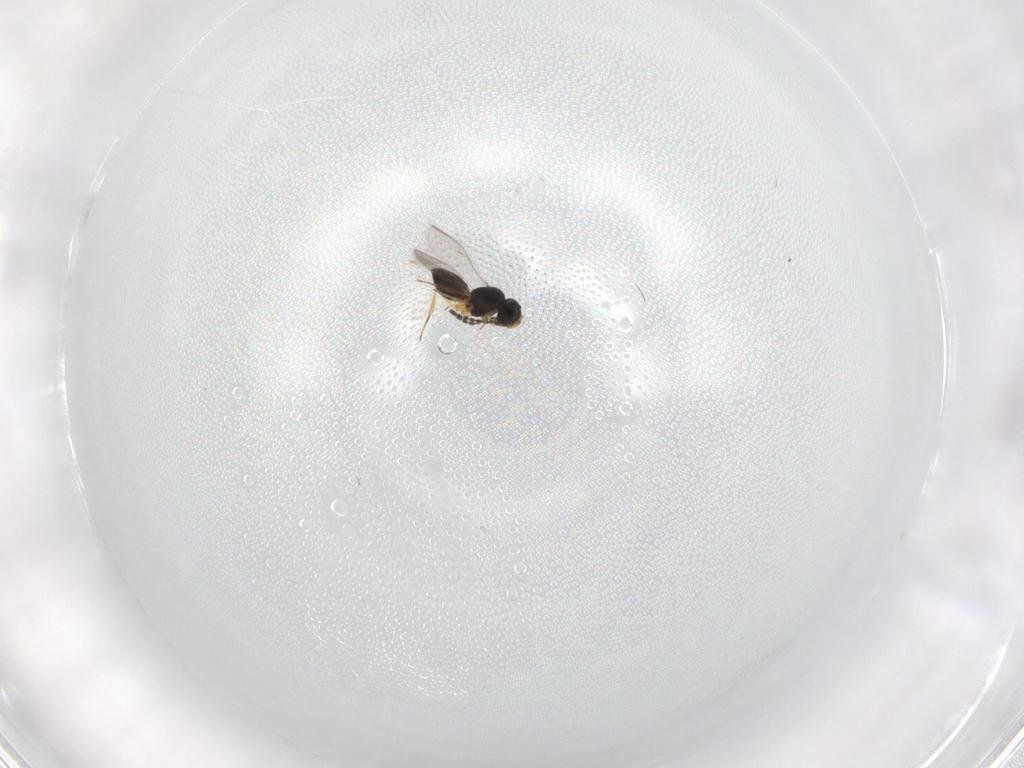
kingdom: Animalia
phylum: Arthropoda
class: Insecta
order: Hymenoptera
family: Scelionidae
